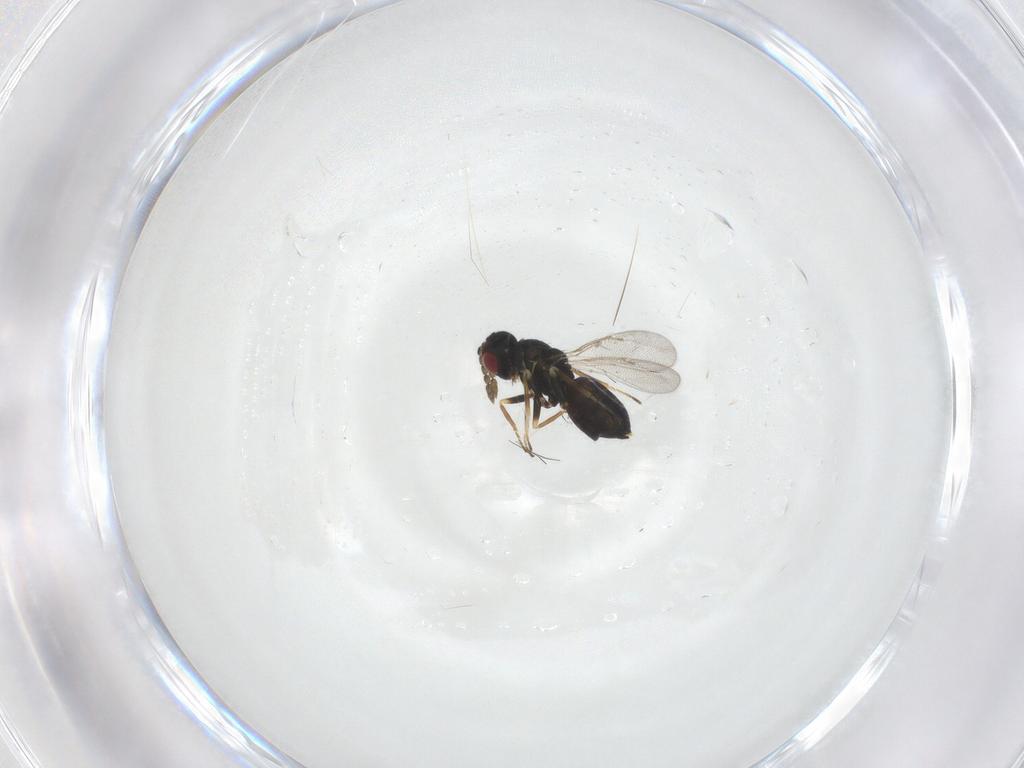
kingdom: Animalia
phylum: Arthropoda
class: Insecta
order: Hymenoptera
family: Eulophidae
